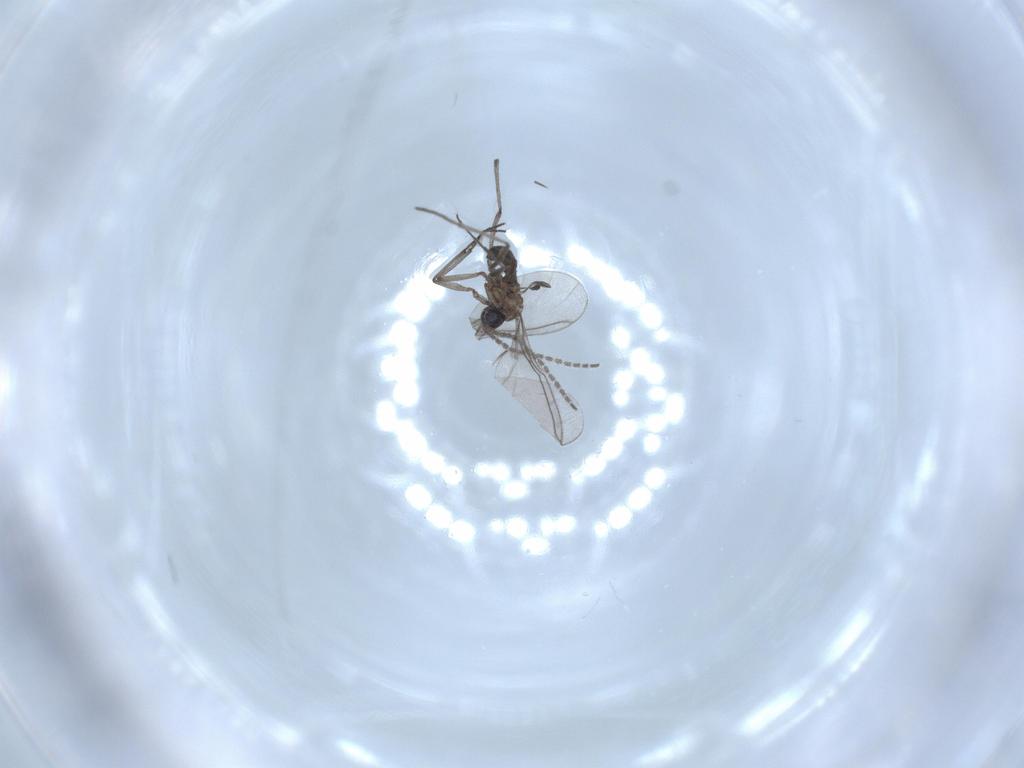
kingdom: Animalia
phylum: Arthropoda
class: Insecta
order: Diptera
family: Sciaridae
